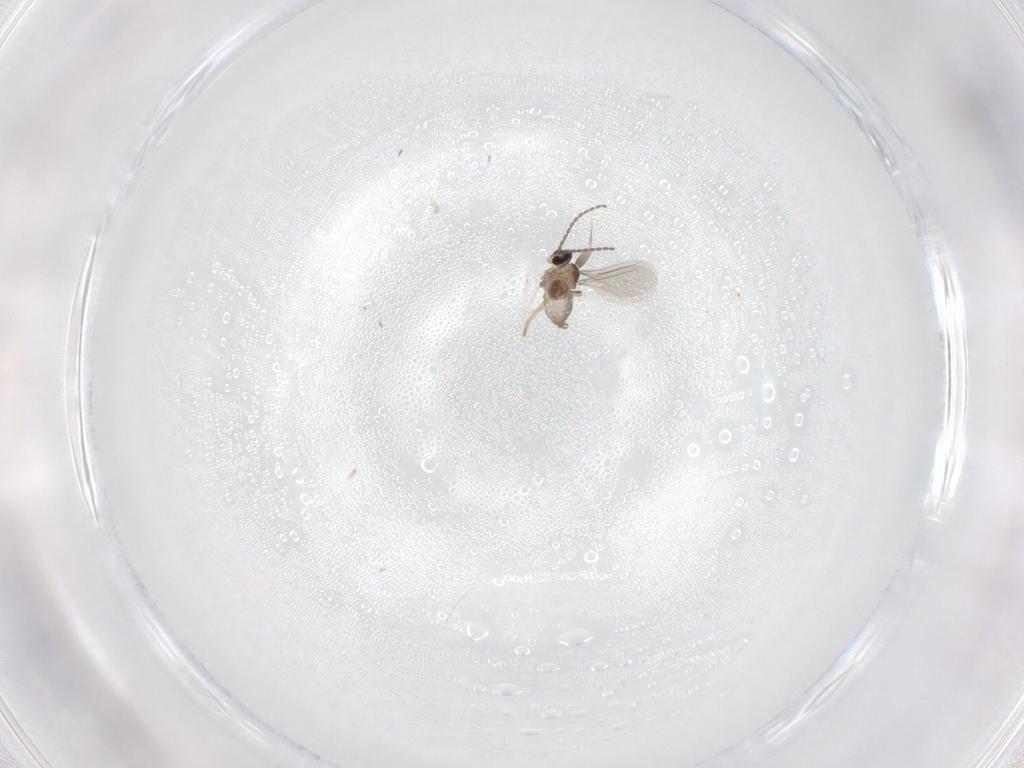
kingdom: Animalia
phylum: Arthropoda
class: Insecta
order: Diptera
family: Cecidomyiidae
